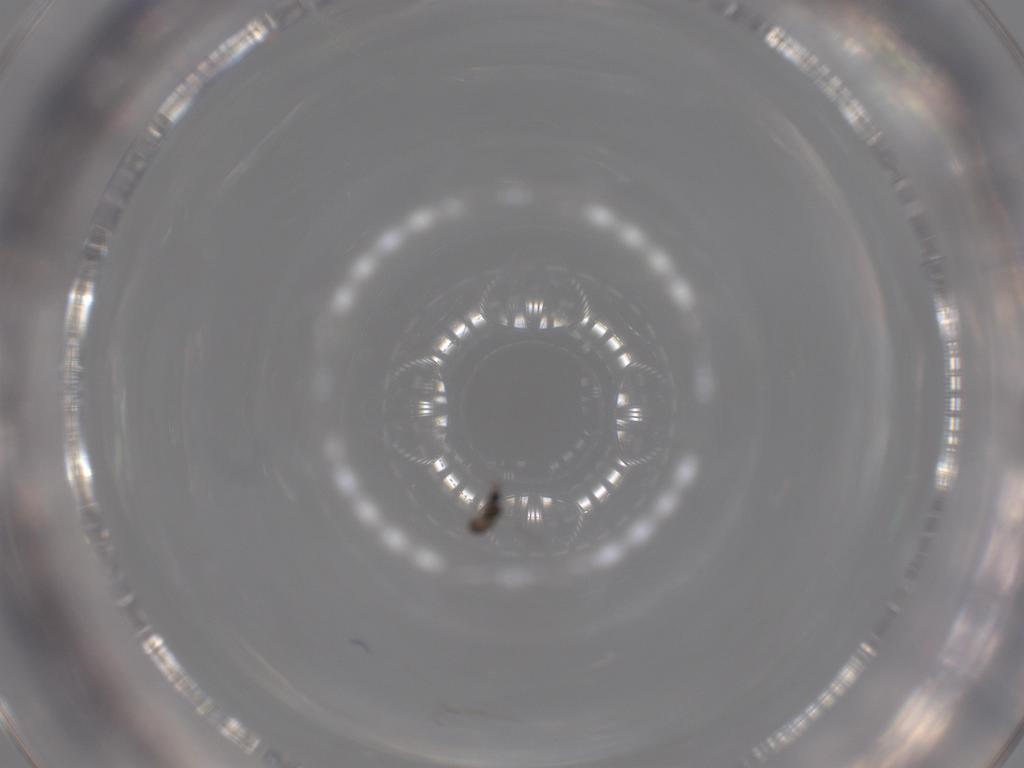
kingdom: Animalia
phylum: Arthropoda
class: Insecta
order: Hymenoptera
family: Mymaridae
